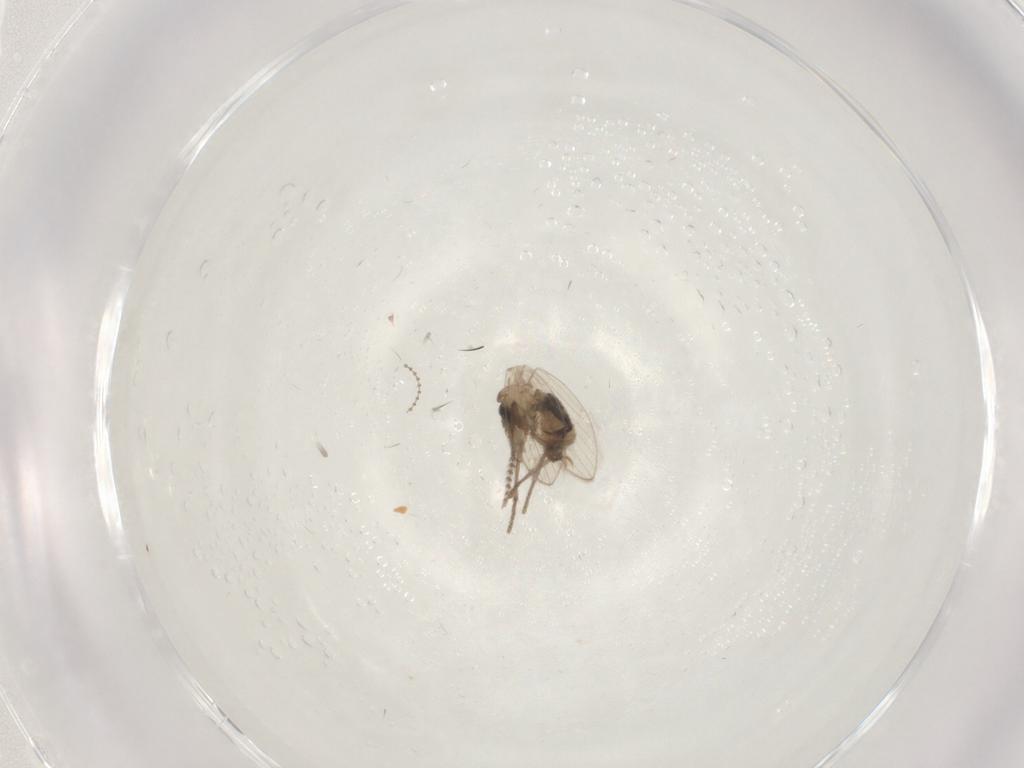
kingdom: Animalia
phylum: Arthropoda
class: Insecta
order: Diptera
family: Psychodidae
